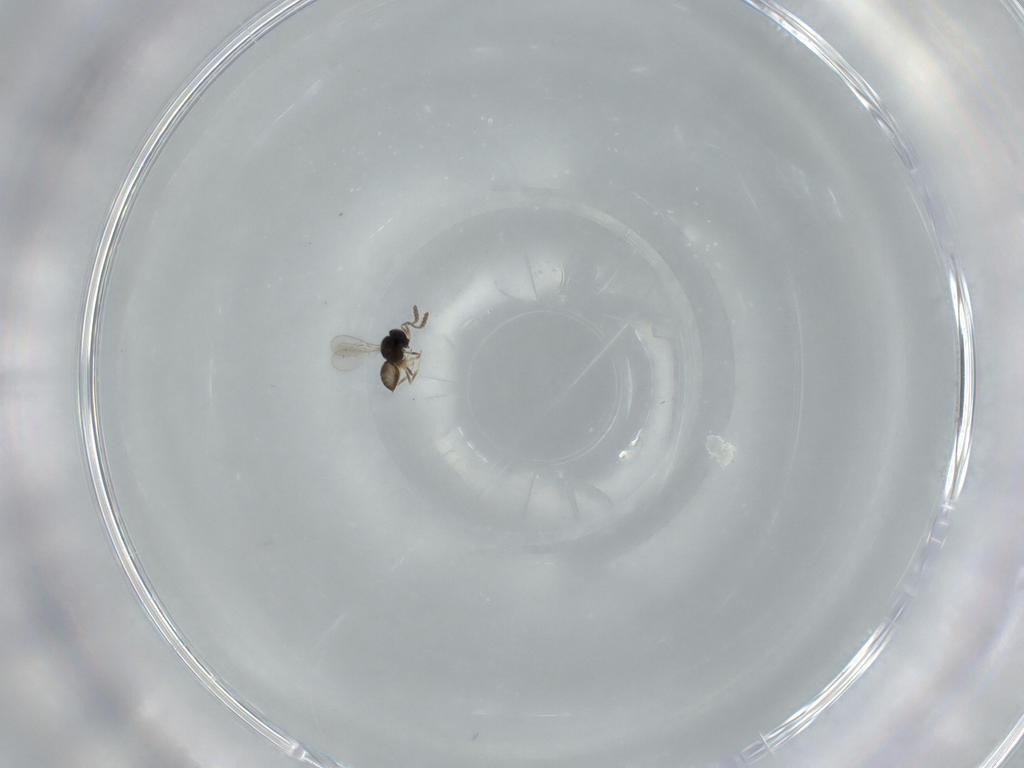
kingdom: Animalia
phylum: Arthropoda
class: Insecta
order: Hymenoptera
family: Scelionidae
